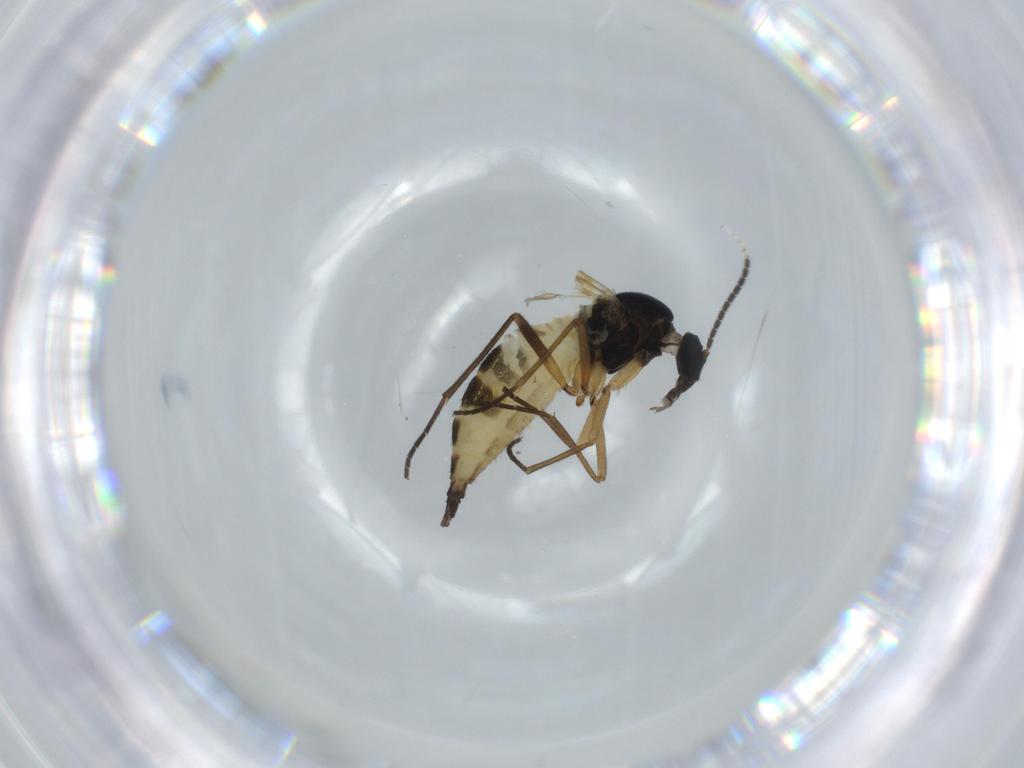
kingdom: Animalia
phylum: Arthropoda
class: Insecta
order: Diptera
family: Sciaridae
